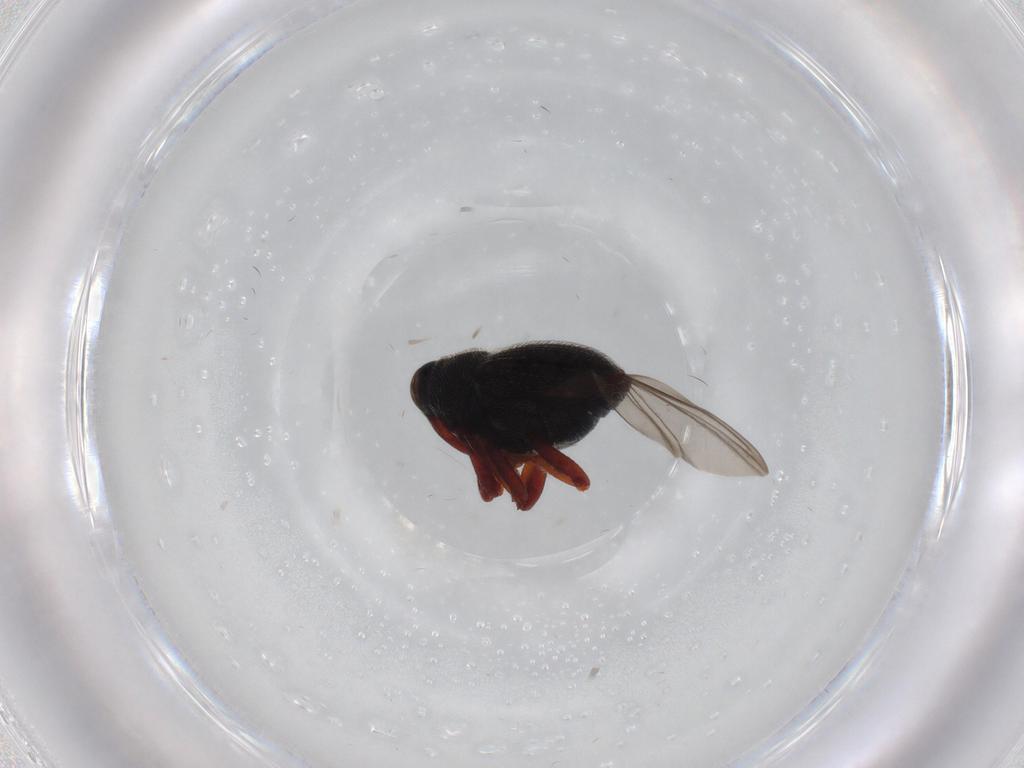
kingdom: Animalia
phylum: Arthropoda
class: Insecta
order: Coleoptera
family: Curculionidae
